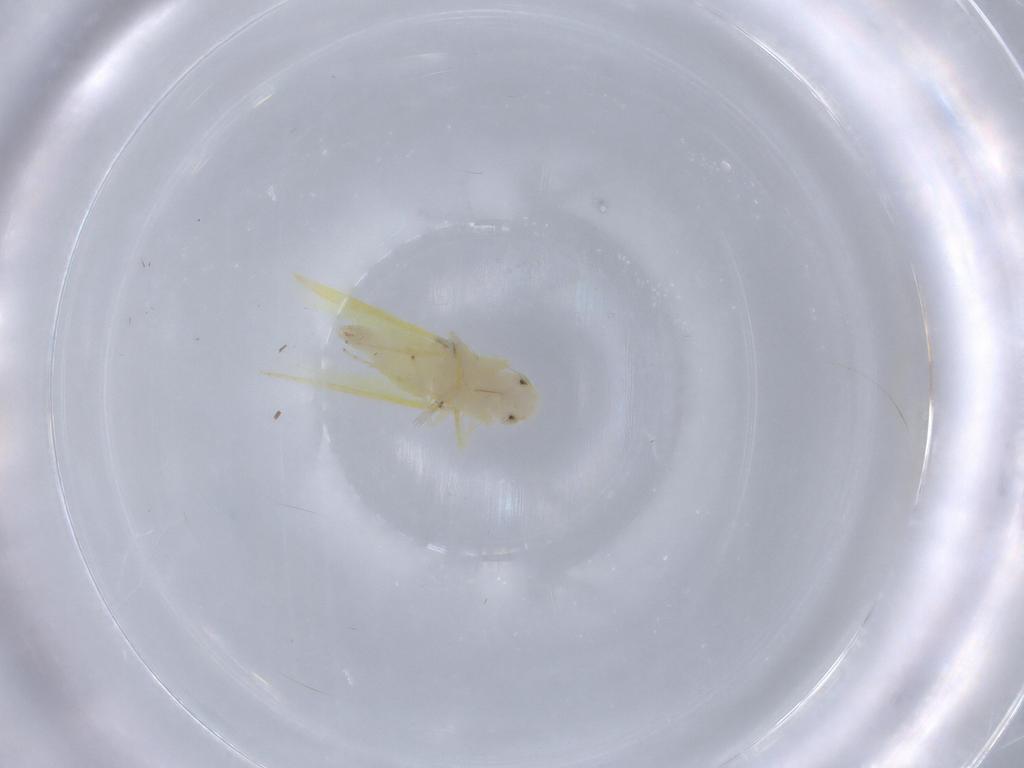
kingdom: Animalia
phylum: Arthropoda
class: Insecta
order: Hemiptera
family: Cicadellidae
